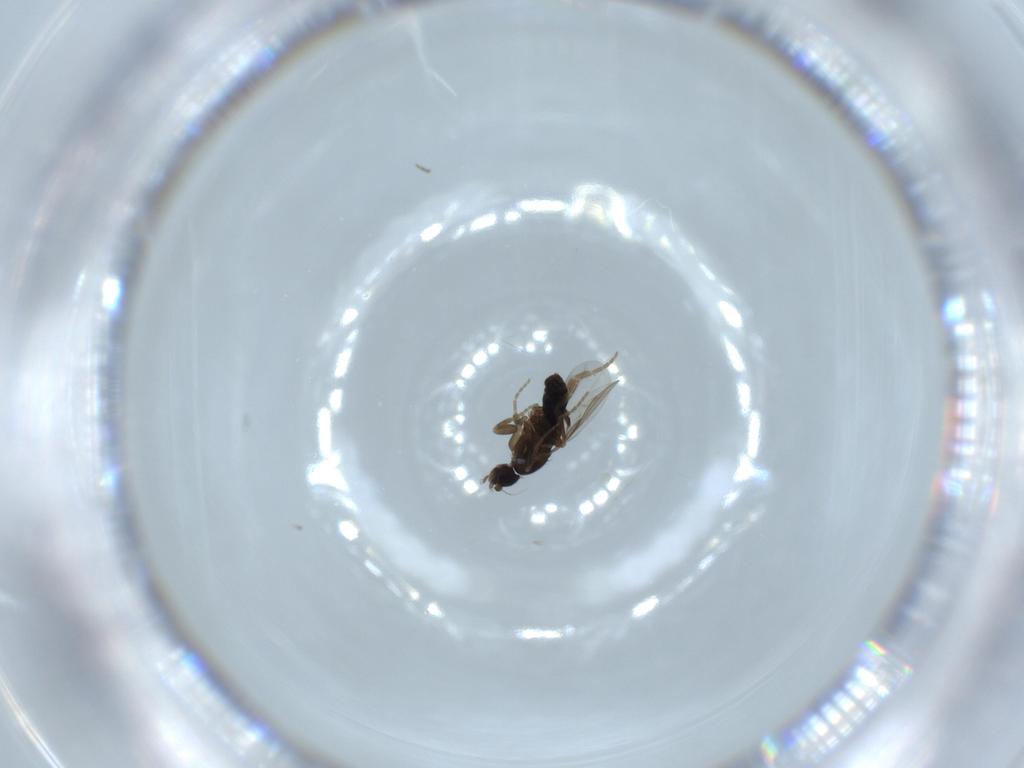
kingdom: Animalia
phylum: Arthropoda
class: Insecta
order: Diptera
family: Phoridae
